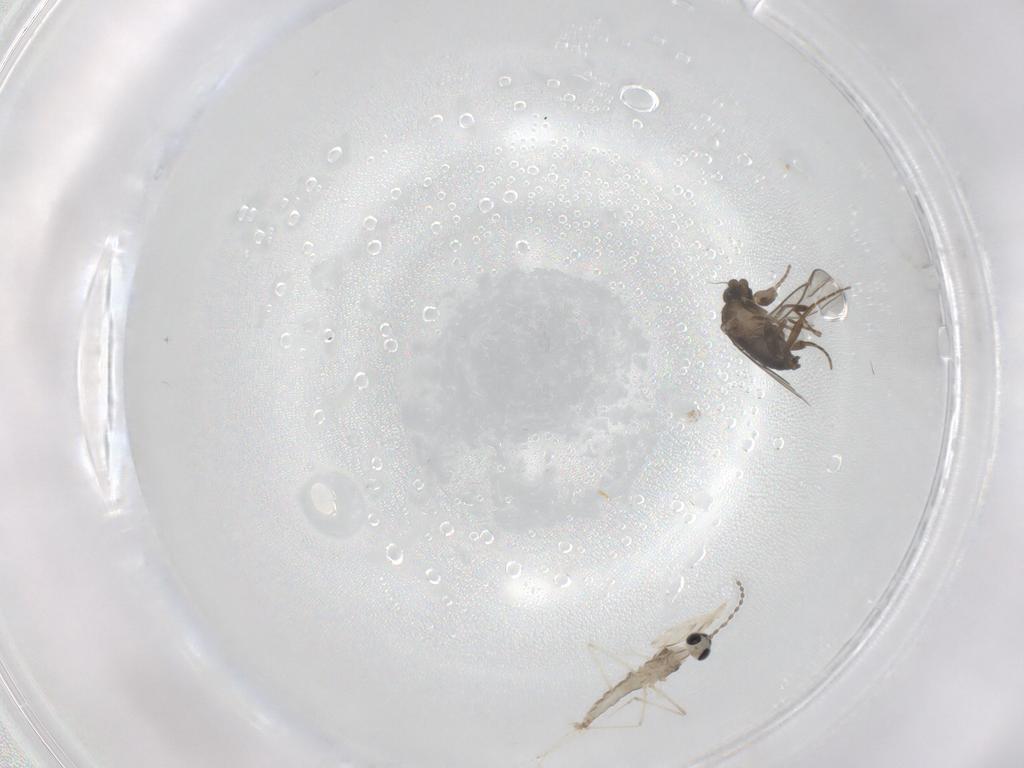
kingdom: Animalia
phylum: Arthropoda
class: Insecta
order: Diptera
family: Cecidomyiidae
